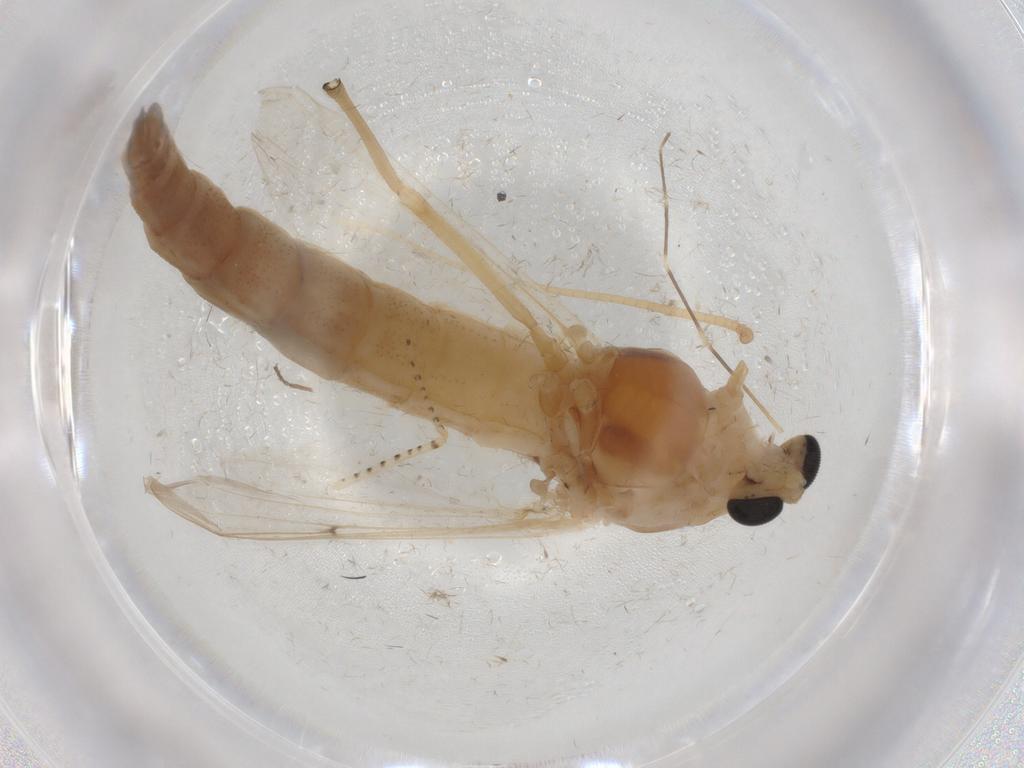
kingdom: Animalia
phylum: Arthropoda
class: Insecta
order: Diptera
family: Chironomidae
